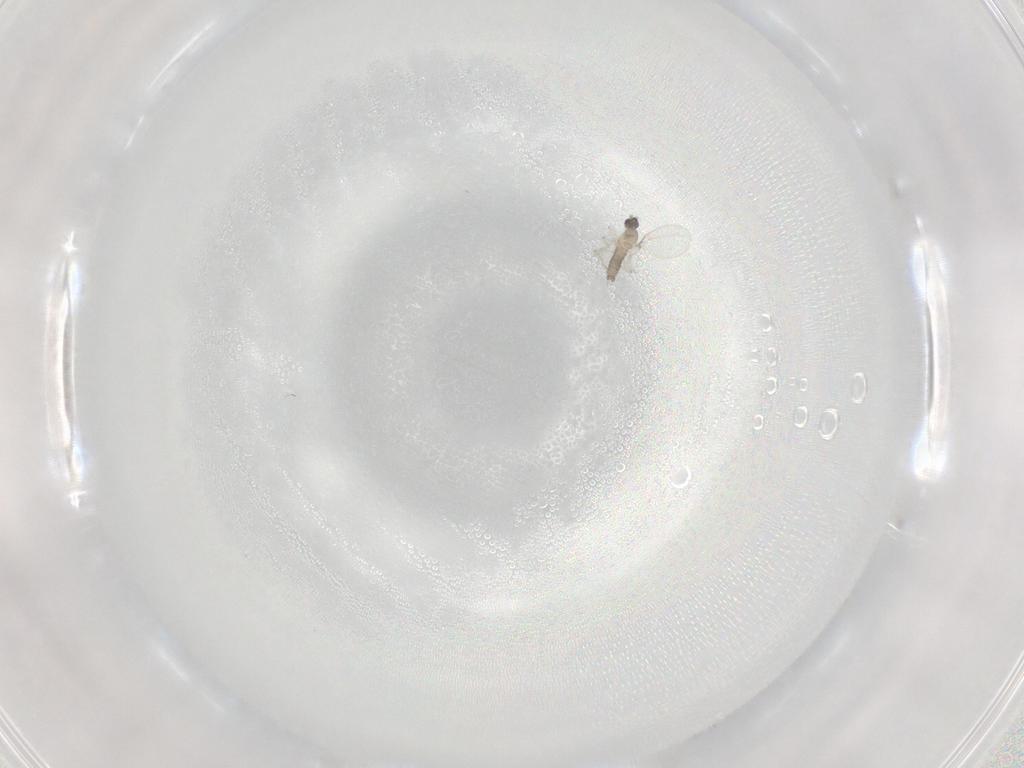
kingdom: Animalia
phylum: Arthropoda
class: Insecta
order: Diptera
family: Cecidomyiidae
